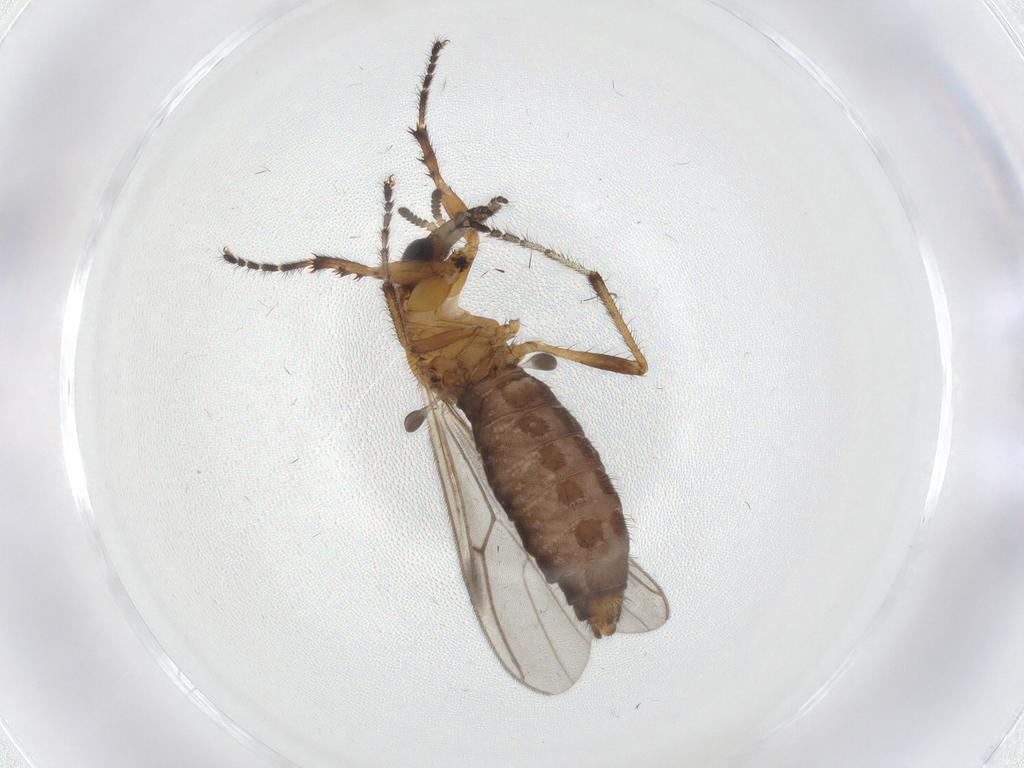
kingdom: Animalia
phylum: Arthropoda
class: Insecta
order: Diptera
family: Bibionidae
